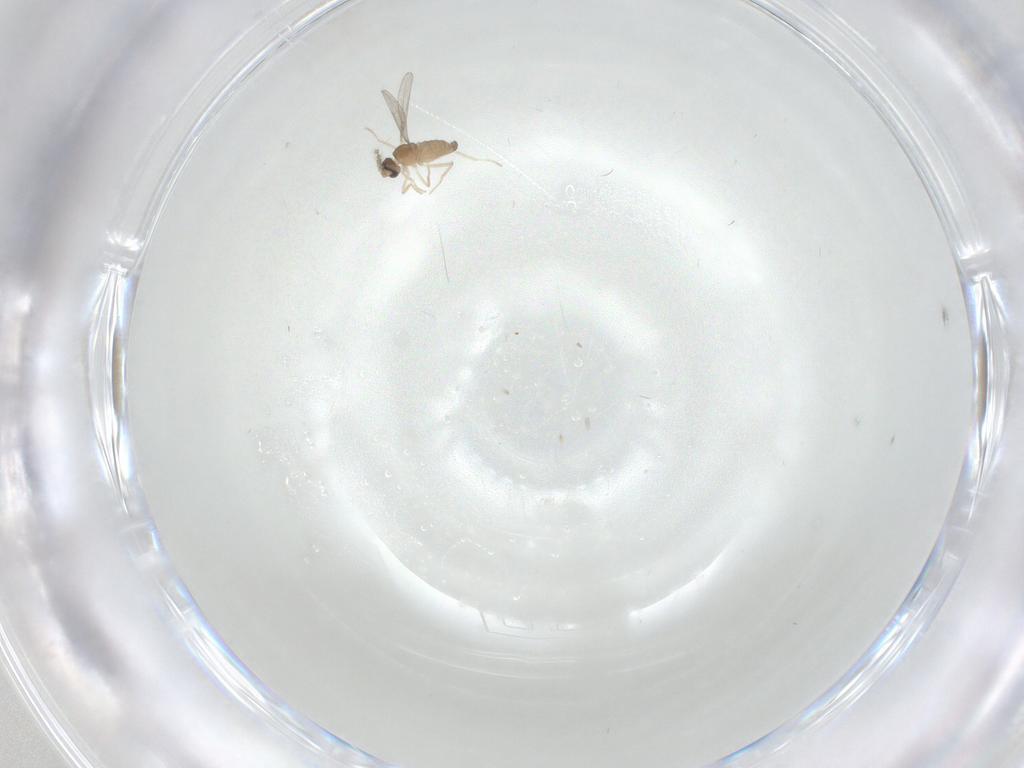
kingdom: Animalia
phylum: Arthropoda
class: Insecta
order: Diptera
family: Cecidomyiidae
